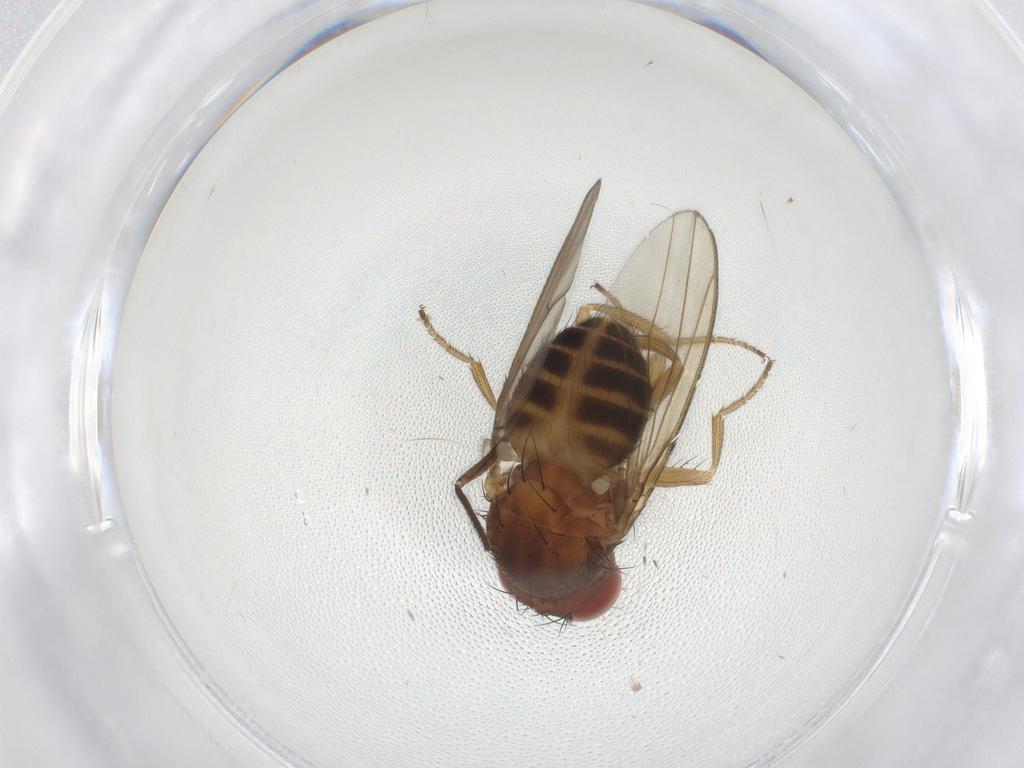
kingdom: Animalia
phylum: Arthropoda
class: Insecta
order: Diptera
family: Drosophilidae
